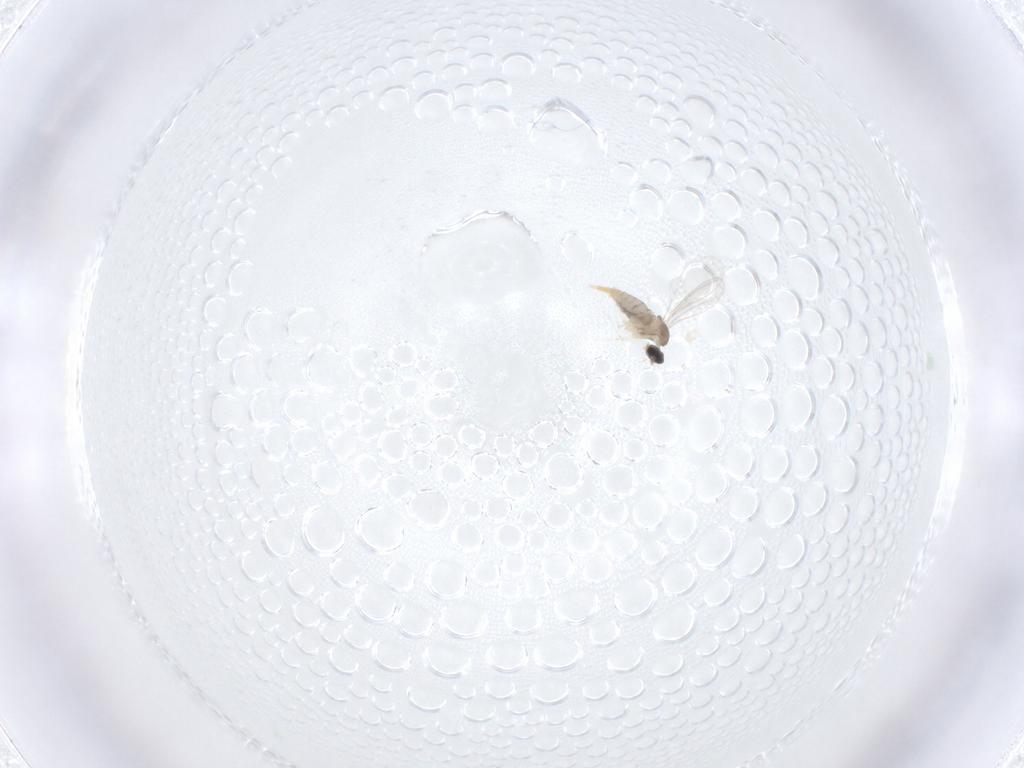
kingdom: Animalia
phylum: Arthropoda
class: Insecta
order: Diptera
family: Cecidomyiidae
